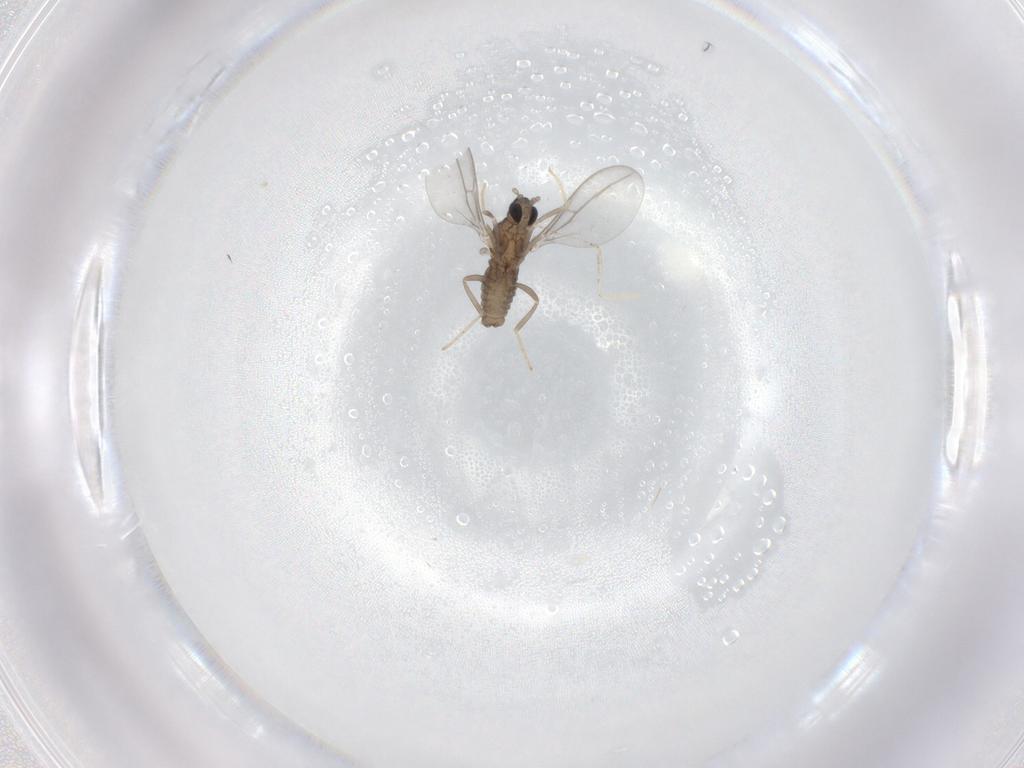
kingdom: Animalia
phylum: Arthropoda
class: Insecta
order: Diptera
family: Cecidomyiidae
